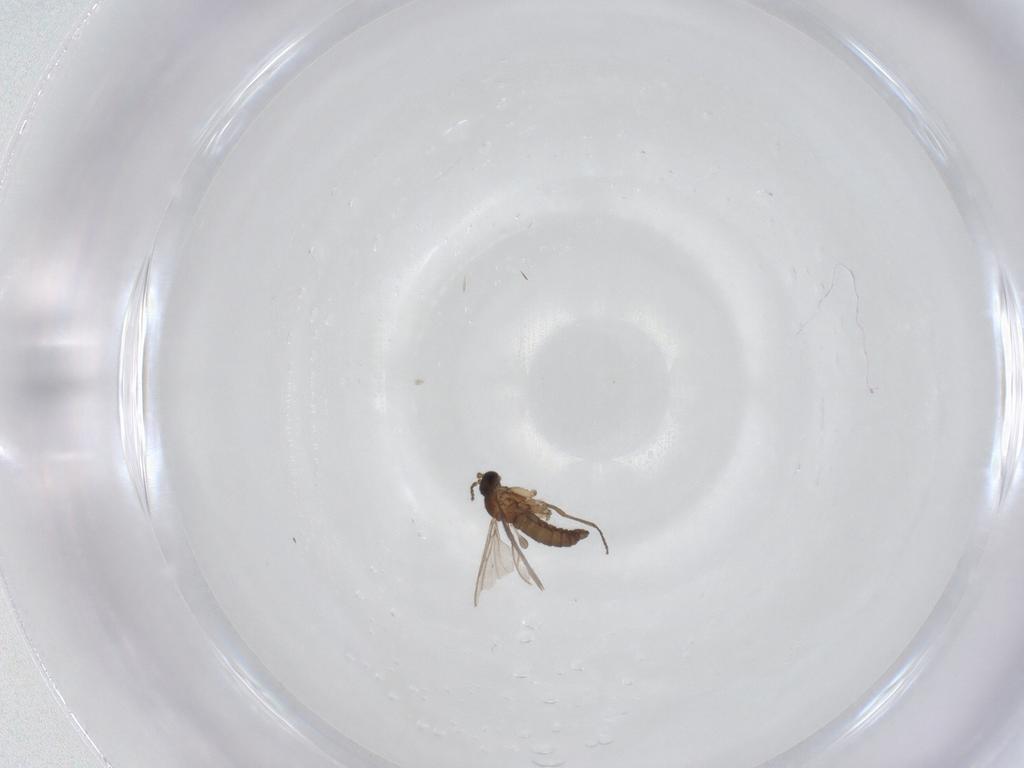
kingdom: Animalia
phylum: Arthropoda
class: Insecta
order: Diptera
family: Sciaridae
